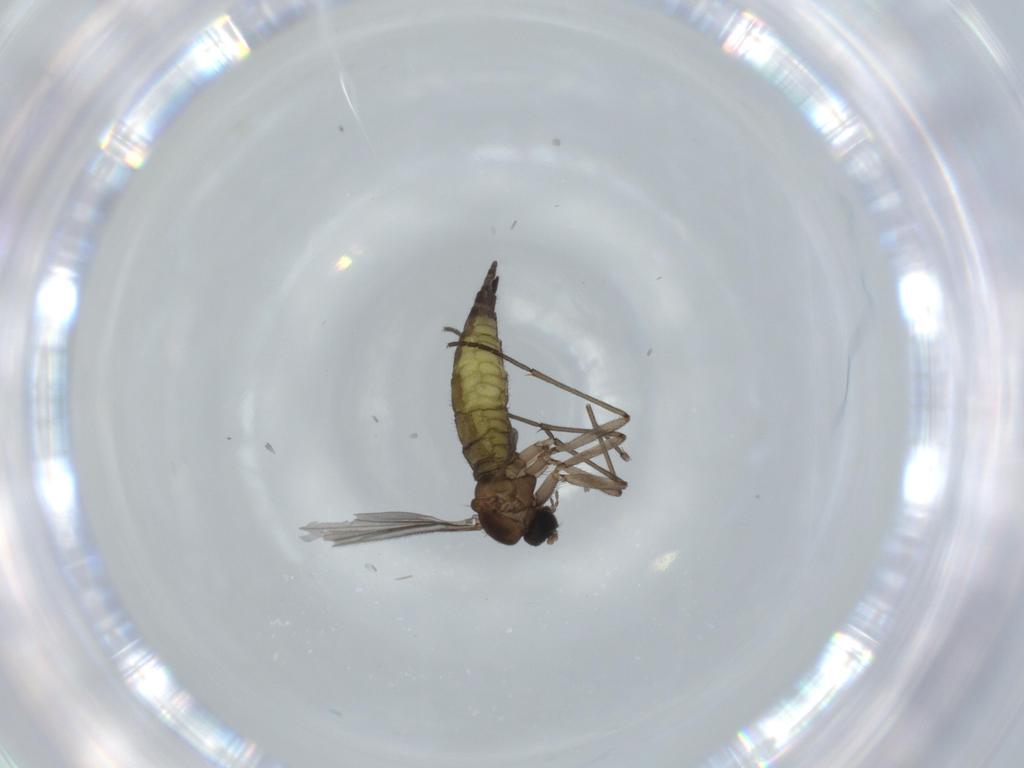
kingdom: Animalia
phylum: Arthropoda
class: Insecta
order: Diptera
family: Sciaridae
